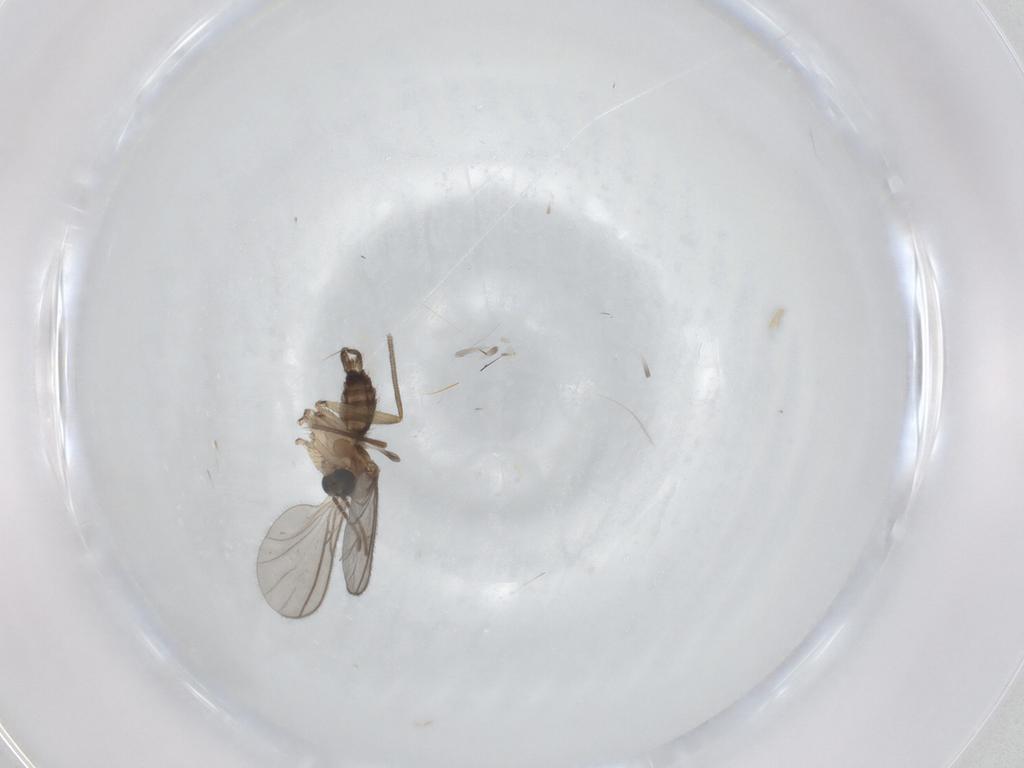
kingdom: Animalia
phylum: Arthropoda
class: Insecta
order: Diptera
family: Sciaridae
